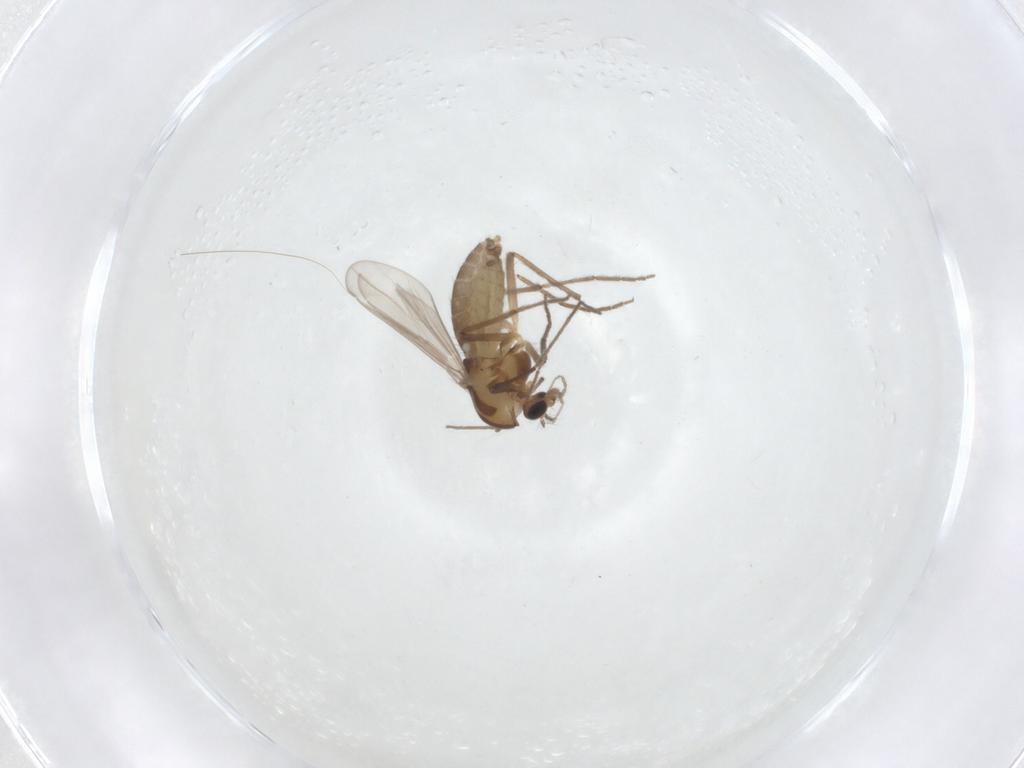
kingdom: Animalia
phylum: Arthropoda
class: Insecta
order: Diptera
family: Chironomidae
